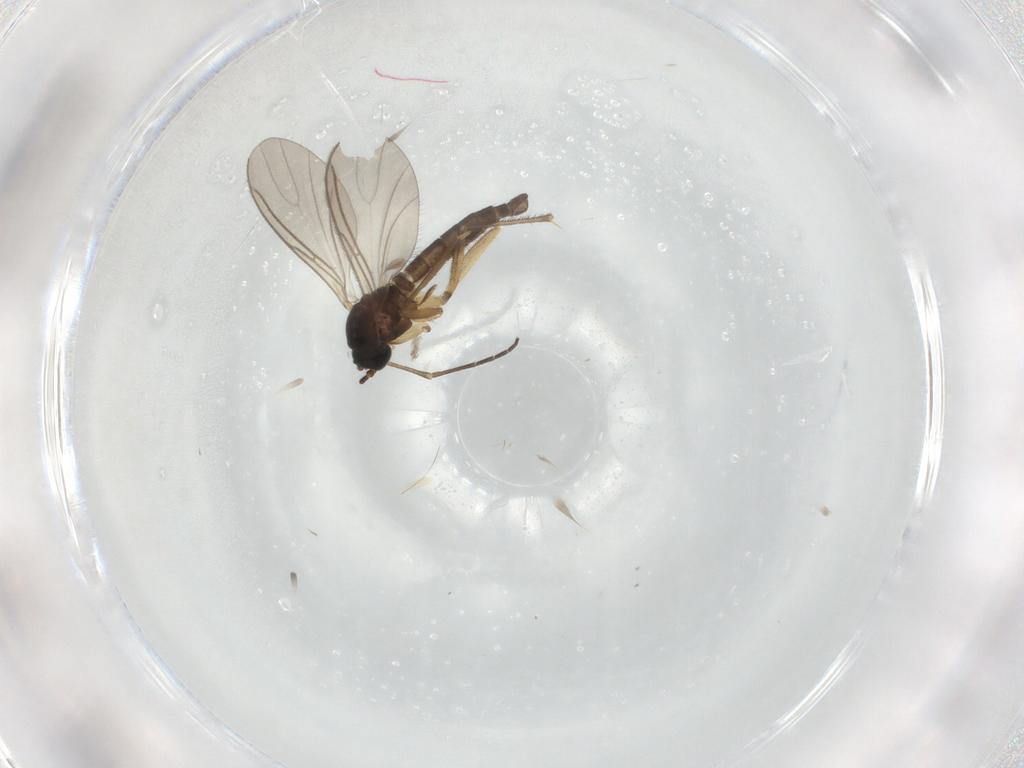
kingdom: Animalia
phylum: Arthropoda
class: Insecta
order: Diptera
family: Sciaridae
